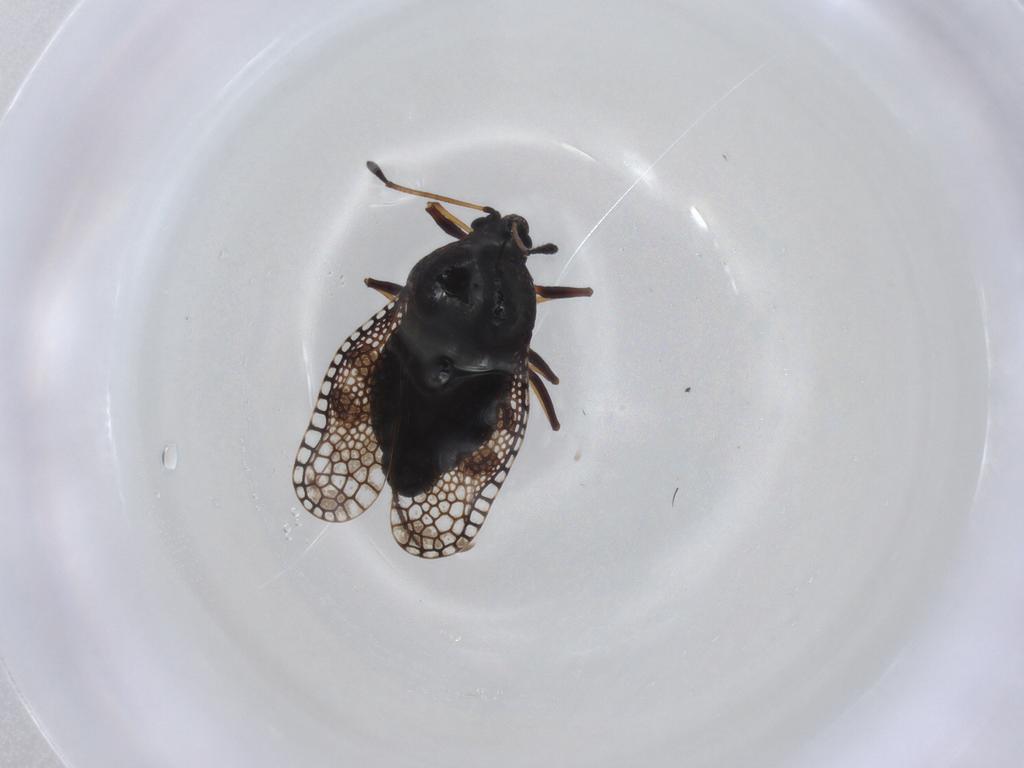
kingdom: Animalia
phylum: Arthropoda
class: Insecta
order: Hemiptera
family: Tingidae
